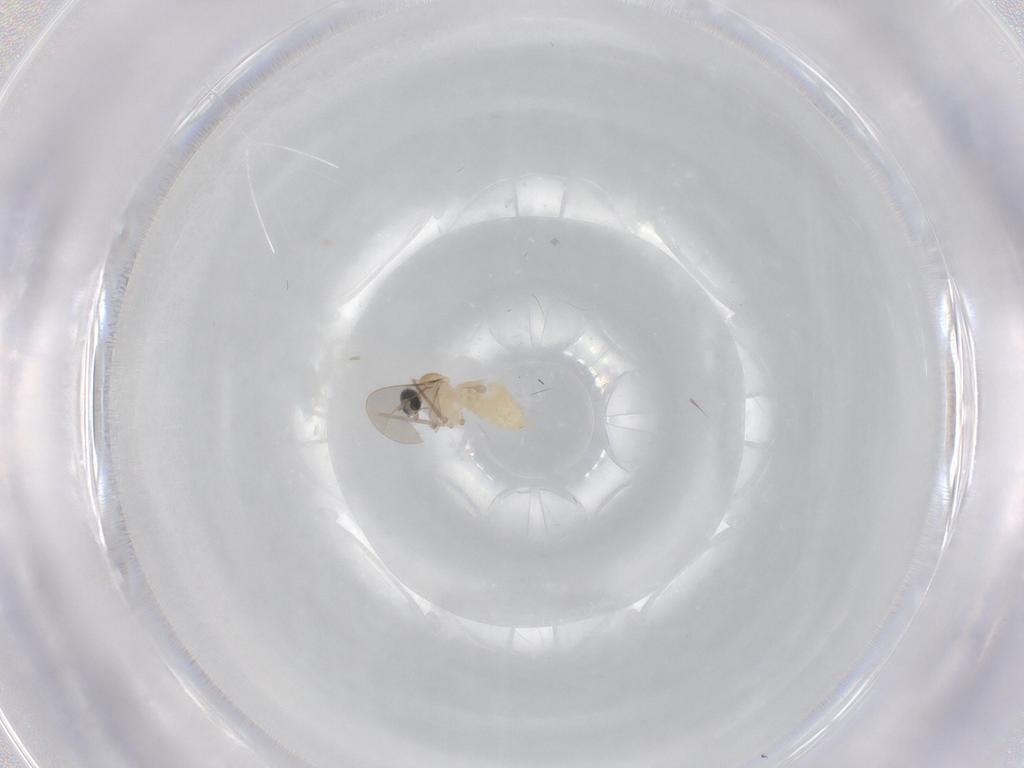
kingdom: Animalia
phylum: Arthropoda
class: Insecta
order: Diptera
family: Cecidomyiidae
